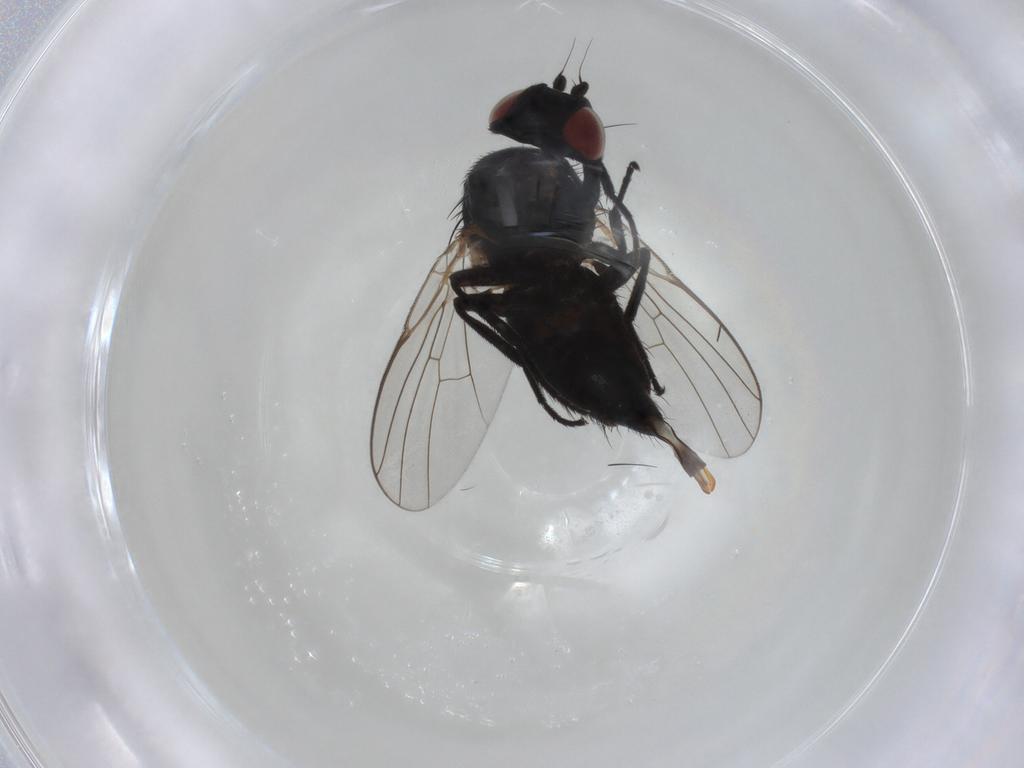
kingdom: Animalia
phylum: Arthropoda
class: Insecta
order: Diptera
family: Agromyzidae
